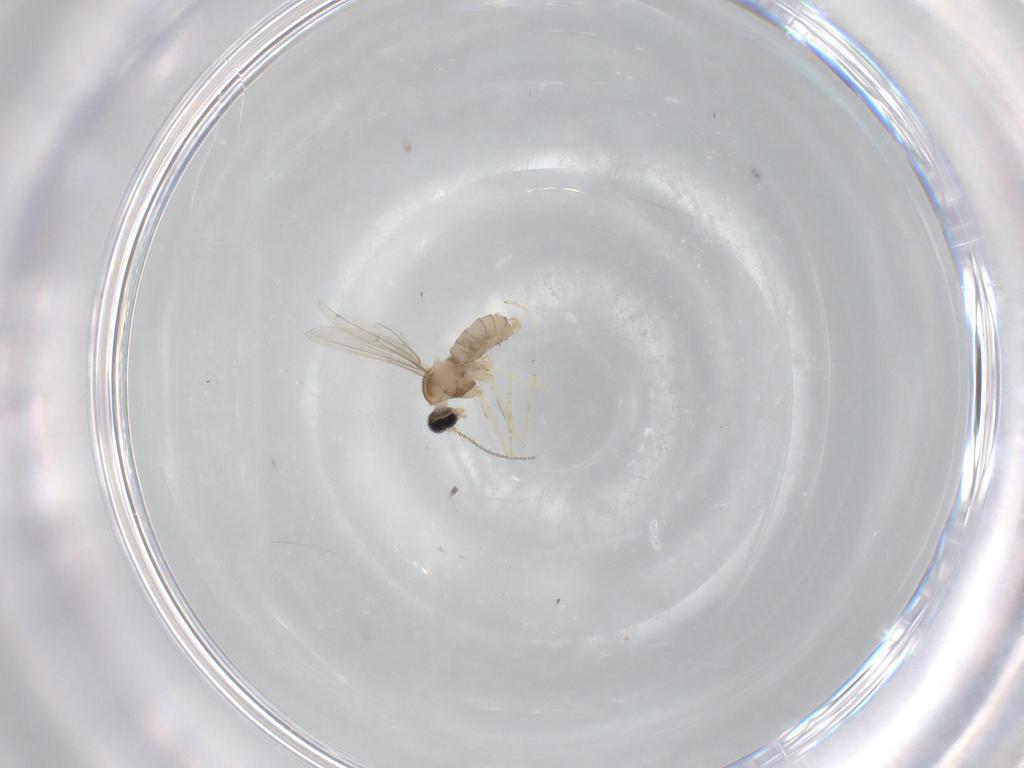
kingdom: Animalia
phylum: Arthropoda
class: Insecta
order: Diptera
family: Cecidomyiidae
